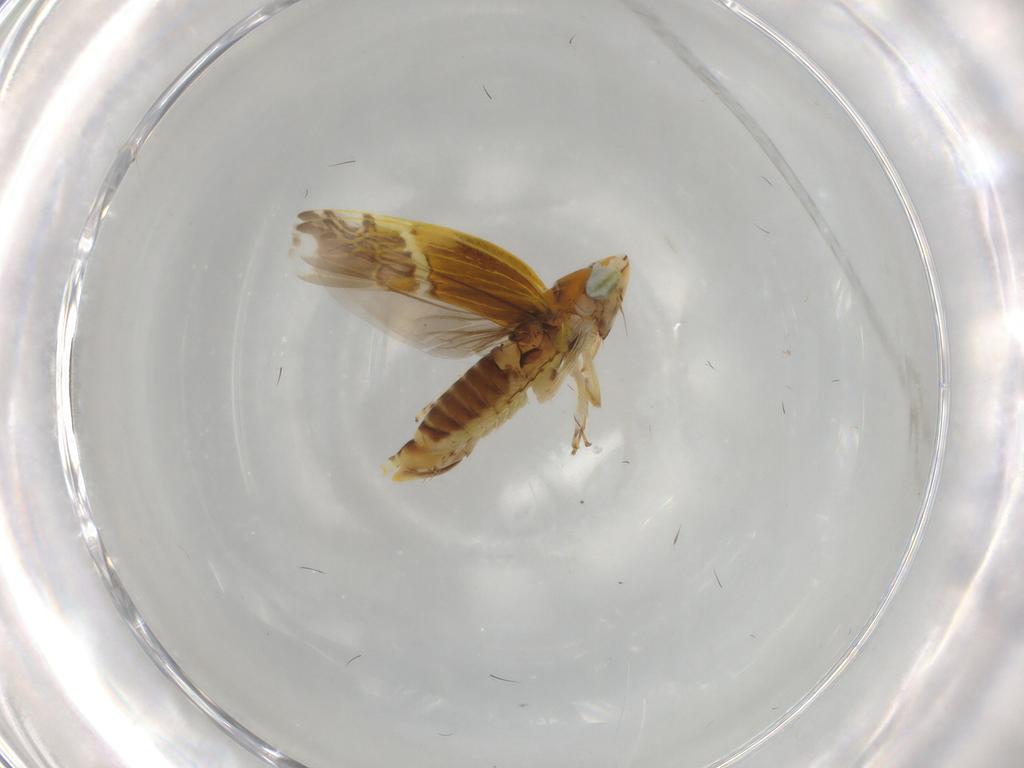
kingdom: Animalia
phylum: Arthropoda
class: Insecta
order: Hemiptera
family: Cicadellidae
